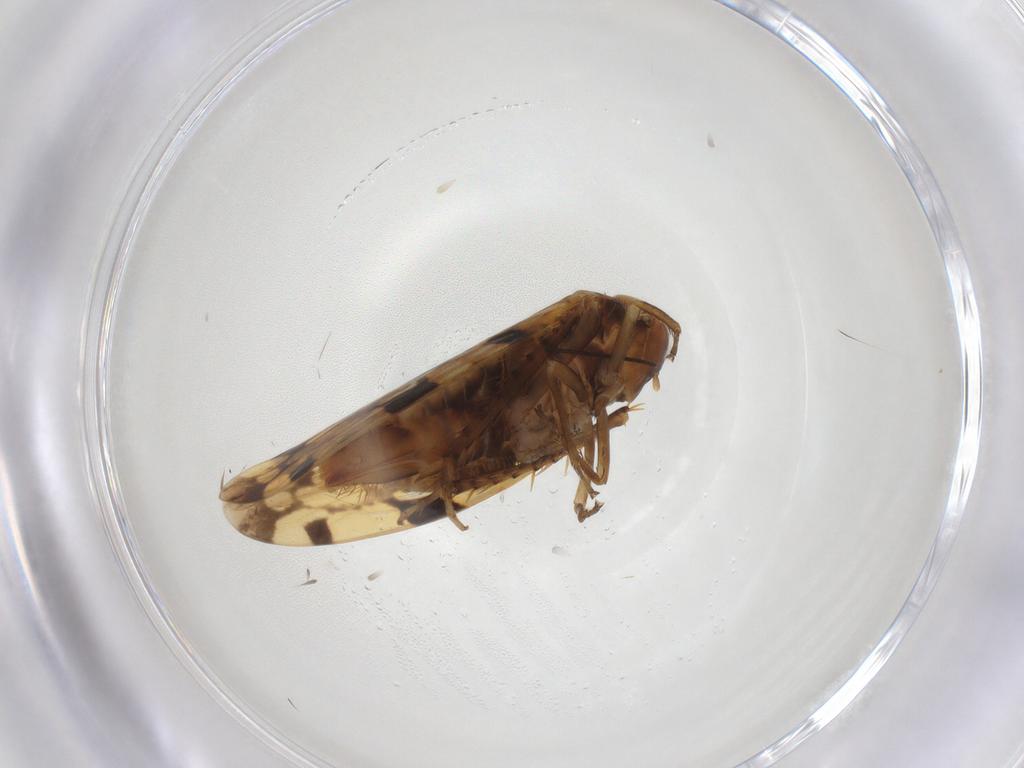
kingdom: Animalia
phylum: Arthropoda
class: Insecta
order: Hemiptera
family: Cicadellidae
